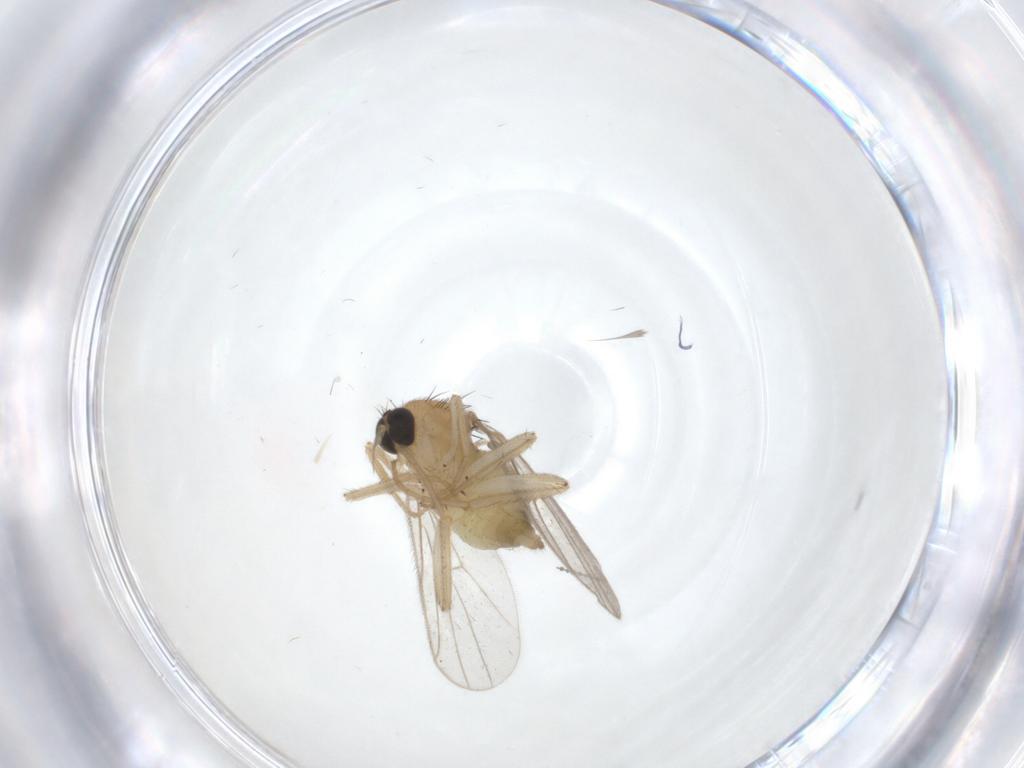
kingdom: Animalia
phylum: Arthropoda
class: Insecta
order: Diptera
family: Hybotidae
